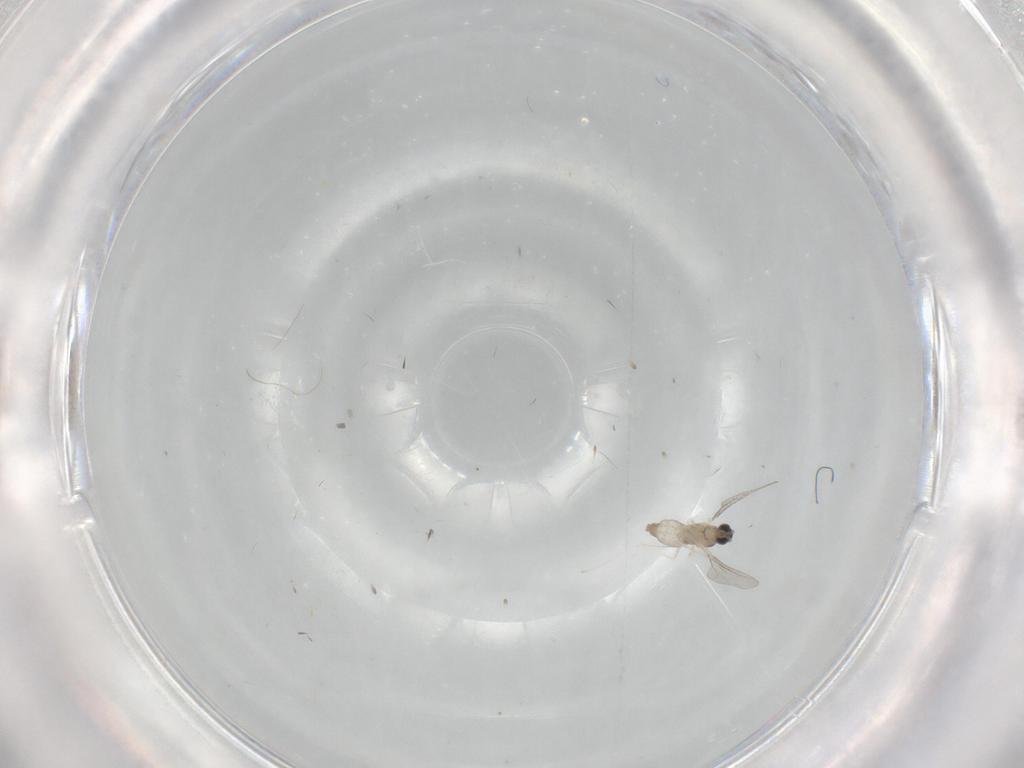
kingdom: Animalia
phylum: Arthropoda
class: Insecta
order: Diptera
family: Cecidomyiidae
